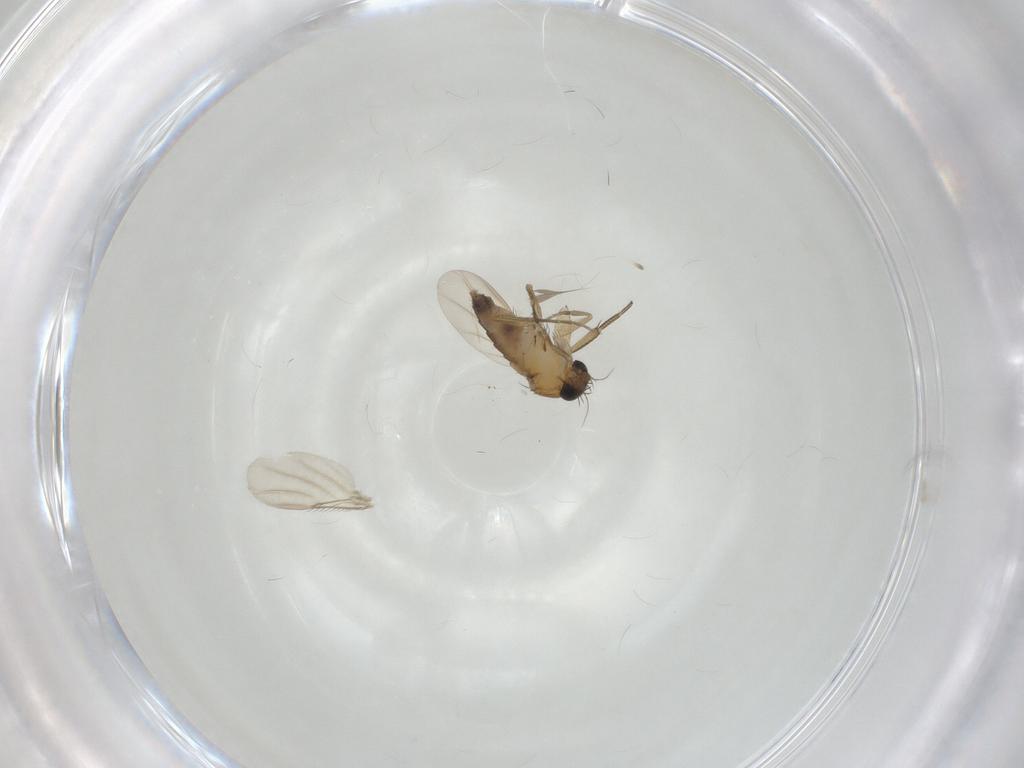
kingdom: Animalia
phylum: Arthropoda
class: Insecta
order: Diptera
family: Phoridae
